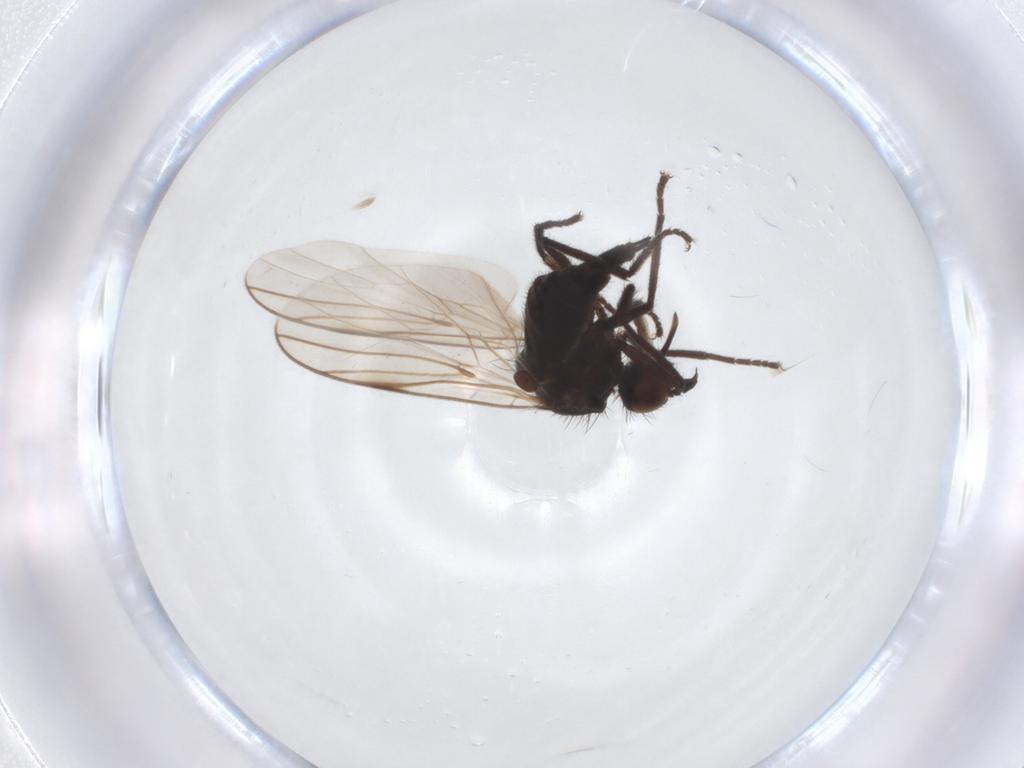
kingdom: Animalia
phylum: Arthropoda
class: Insecta
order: Diptera
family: Empididae
